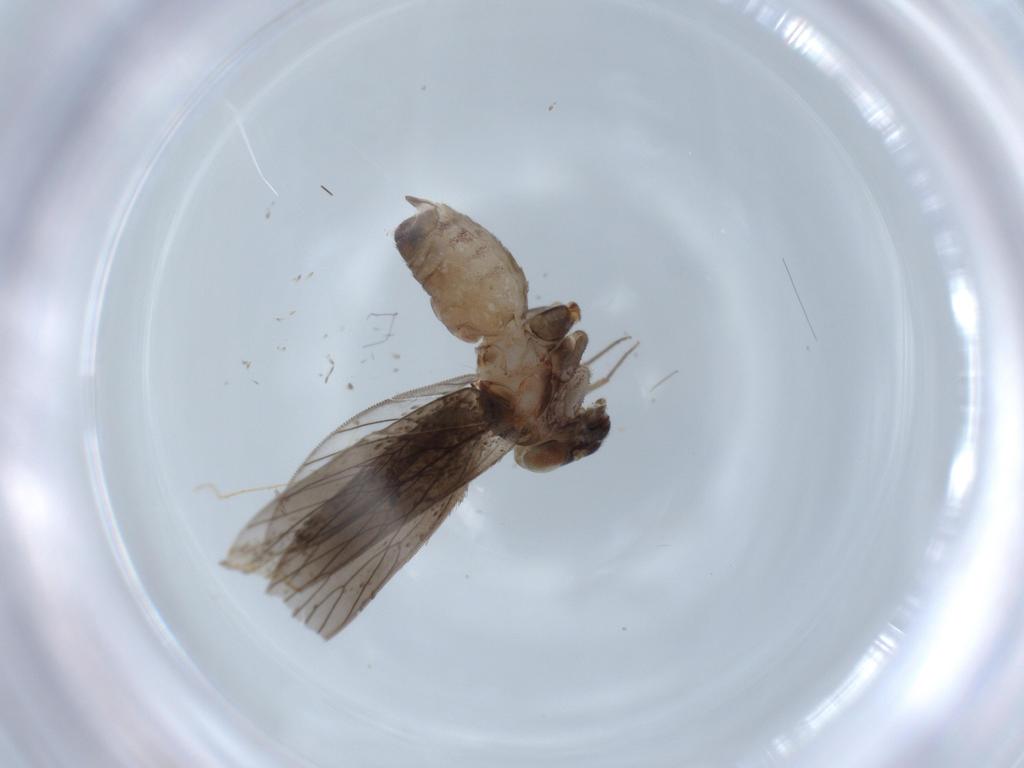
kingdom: Animalia
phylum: Arthropoda
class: Insecta
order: Psocodea
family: Lepidopsocidae
